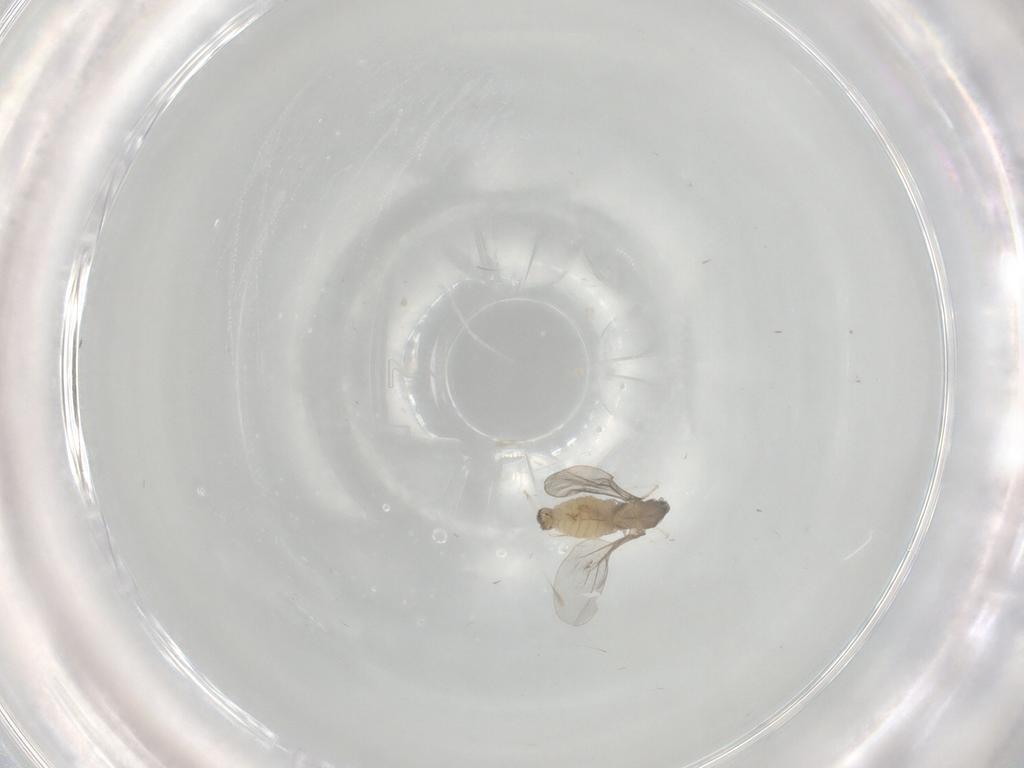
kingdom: Animalia
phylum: Arthropoda
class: Insecta
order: Diptera
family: Cecidomyiidae
